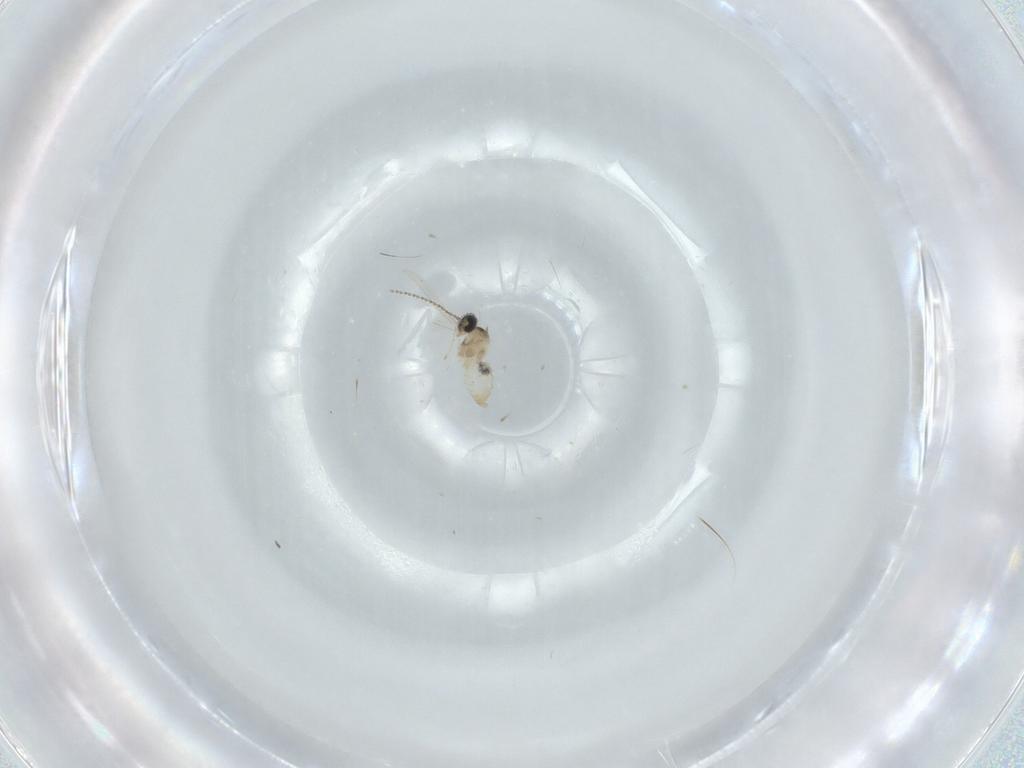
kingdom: Animalia
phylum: Arthropoda
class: Insecta
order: Diptera
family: Cecidomyiidae
